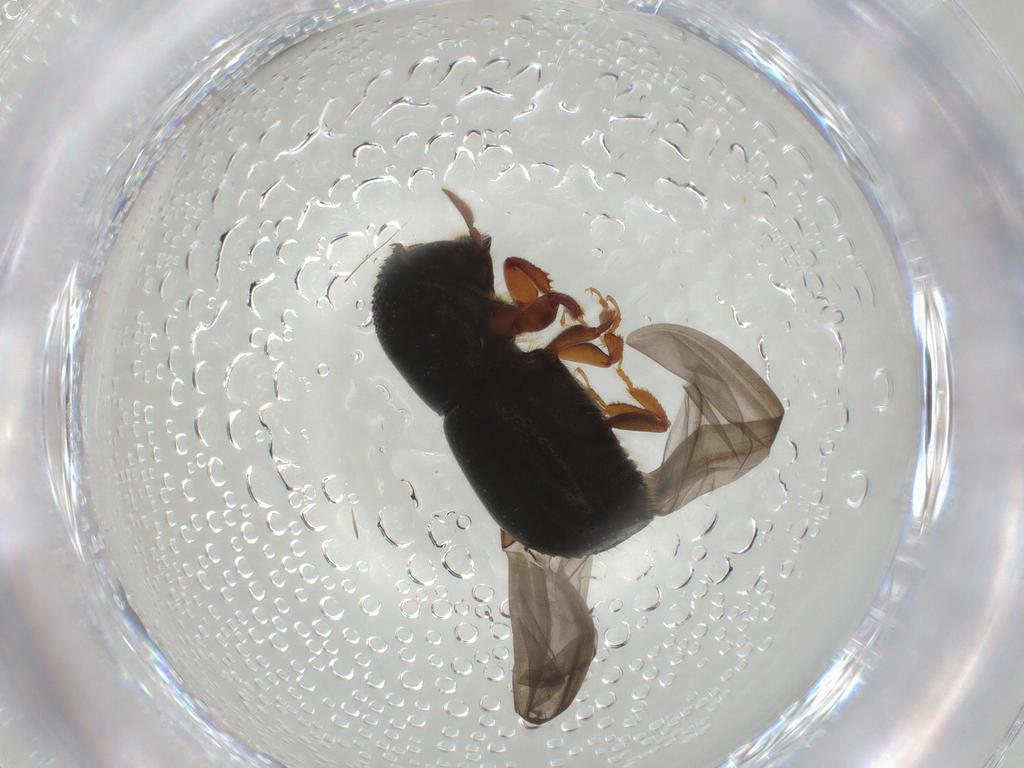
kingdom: Animalia
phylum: Arthropoda
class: Insecta
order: Coleoptera
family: Curculionidae
